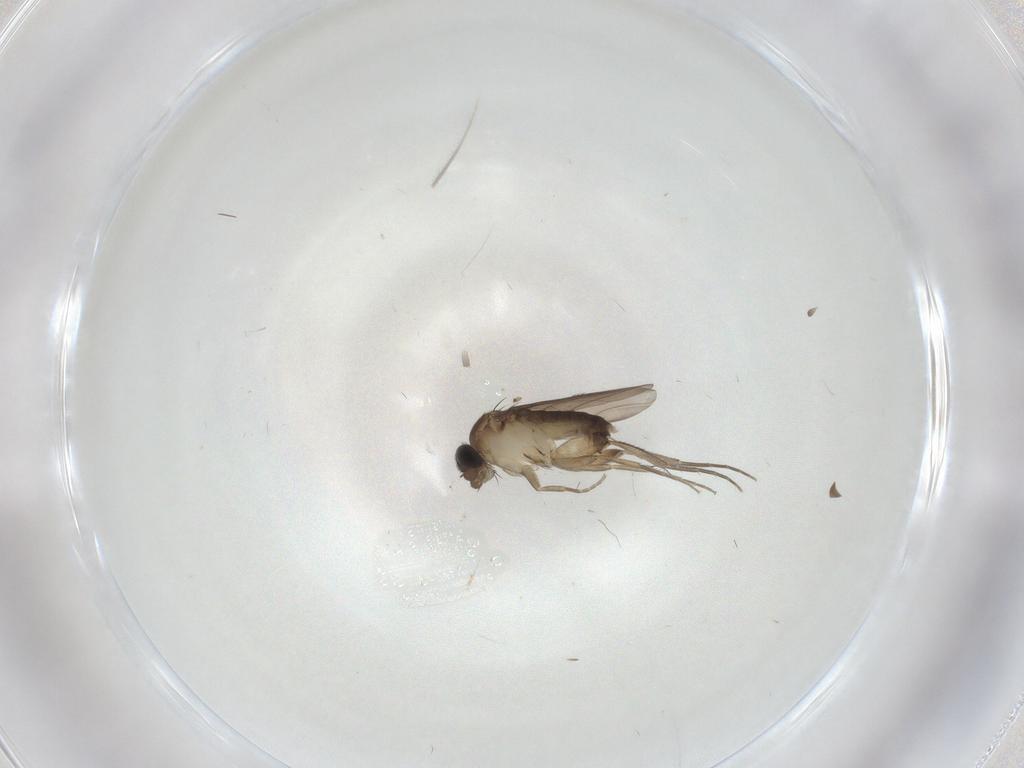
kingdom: Animalia
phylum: Arthropoda
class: Insecta
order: Diptera
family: Phoridae
